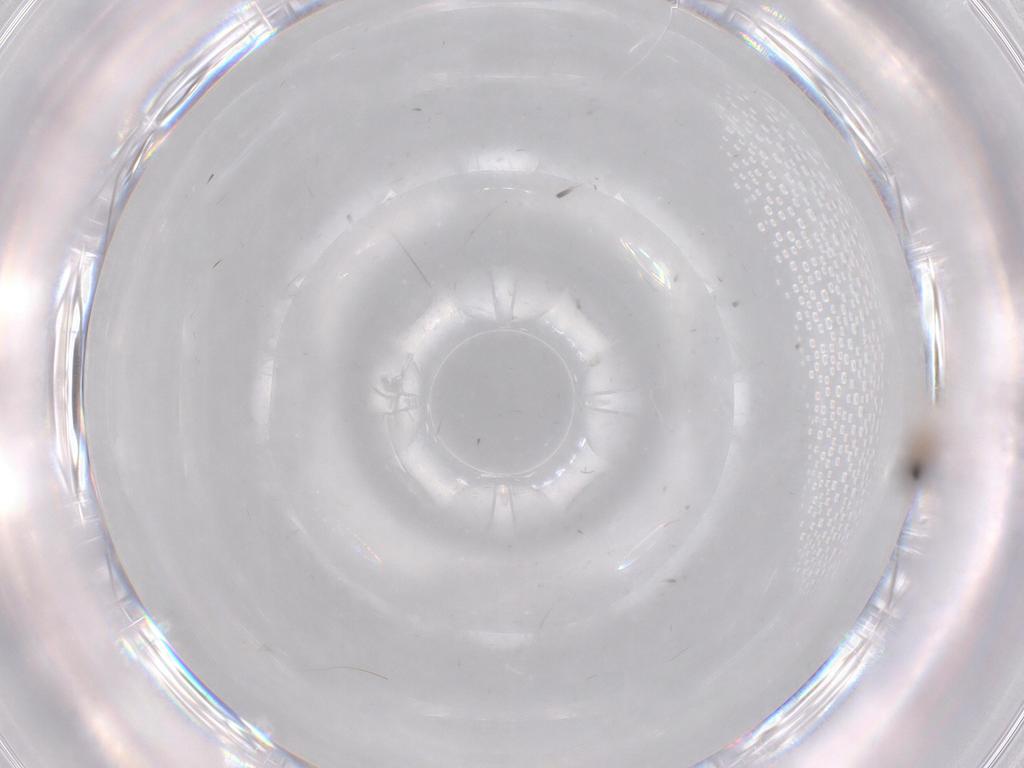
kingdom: Animalia
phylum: Arthropoda
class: Insecta
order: Diptera
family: Cecidomyiidae
